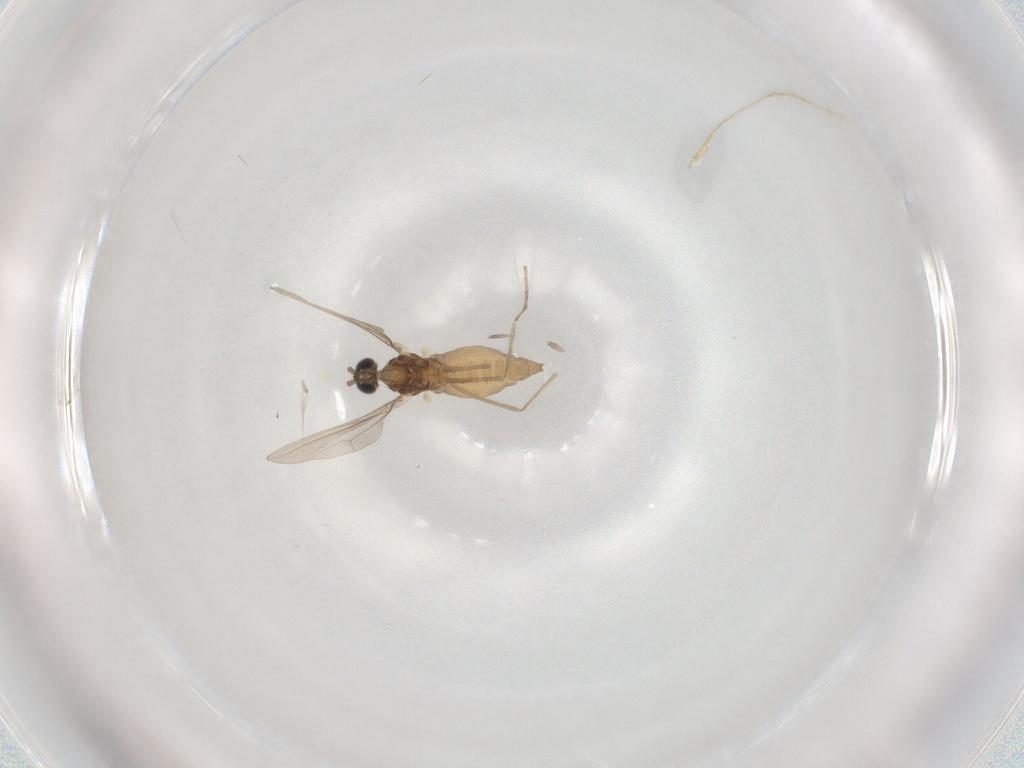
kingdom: Animalia
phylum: Arthropoda
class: Insecta
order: Diptera
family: Cecidomyiidae
